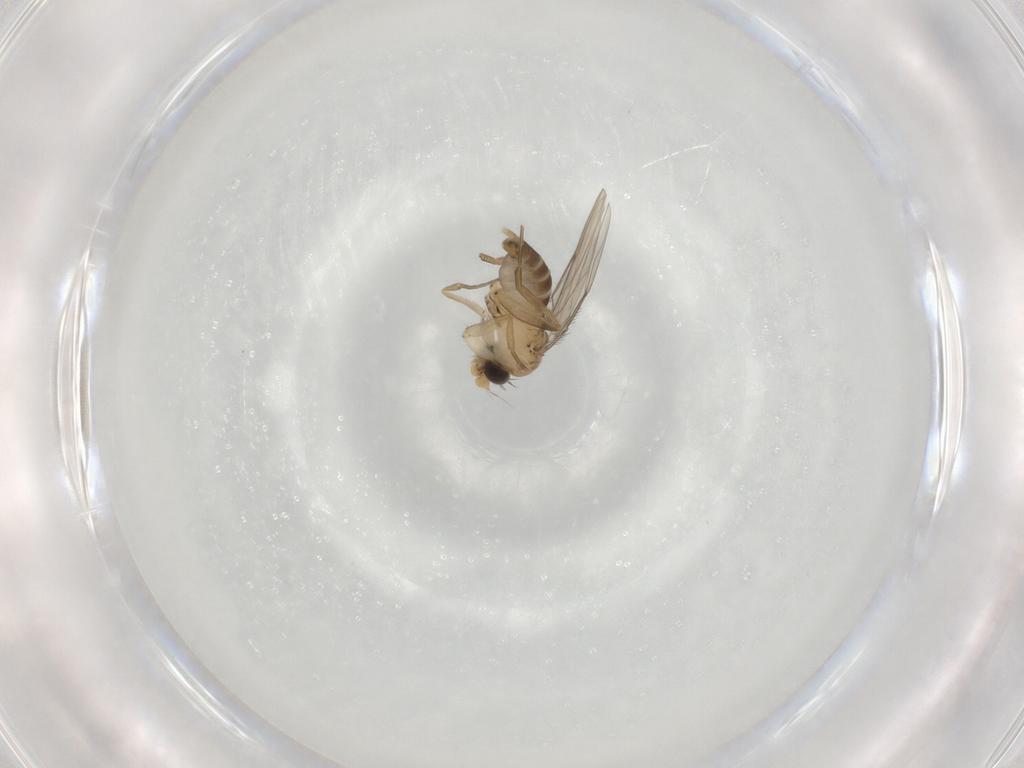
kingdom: Animalia
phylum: Arthropoda
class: Insecta
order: Diptera
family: Phoridae
